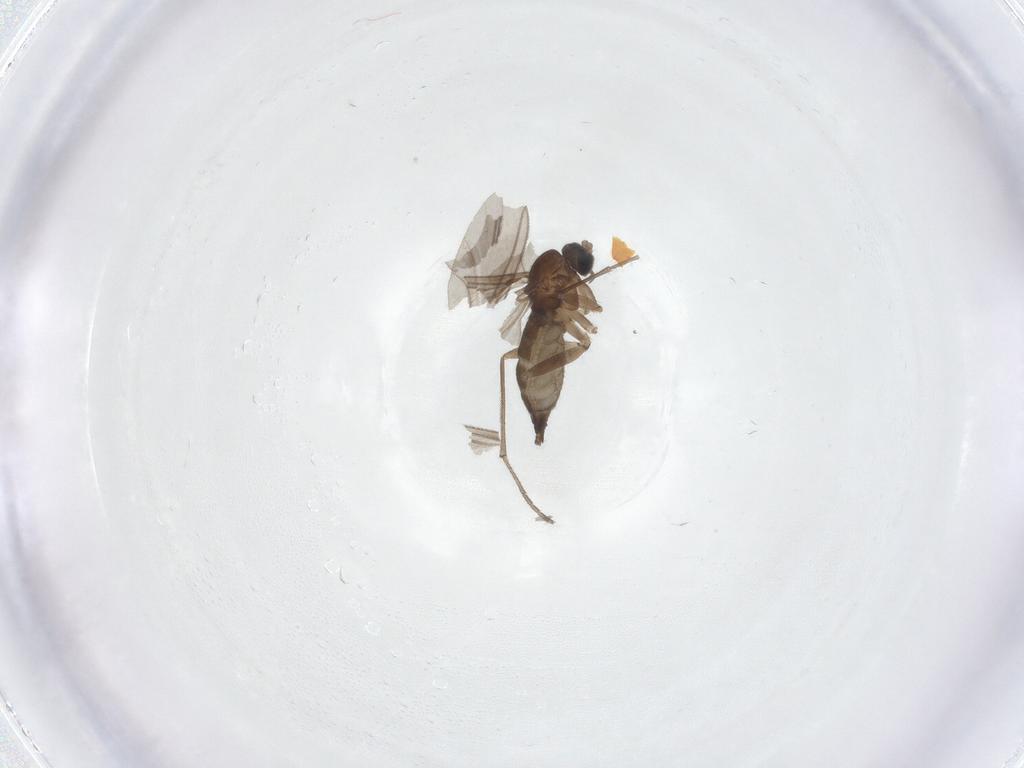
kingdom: Animalia
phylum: Arthropoda
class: Insecta
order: Diptera
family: Sciaridae
